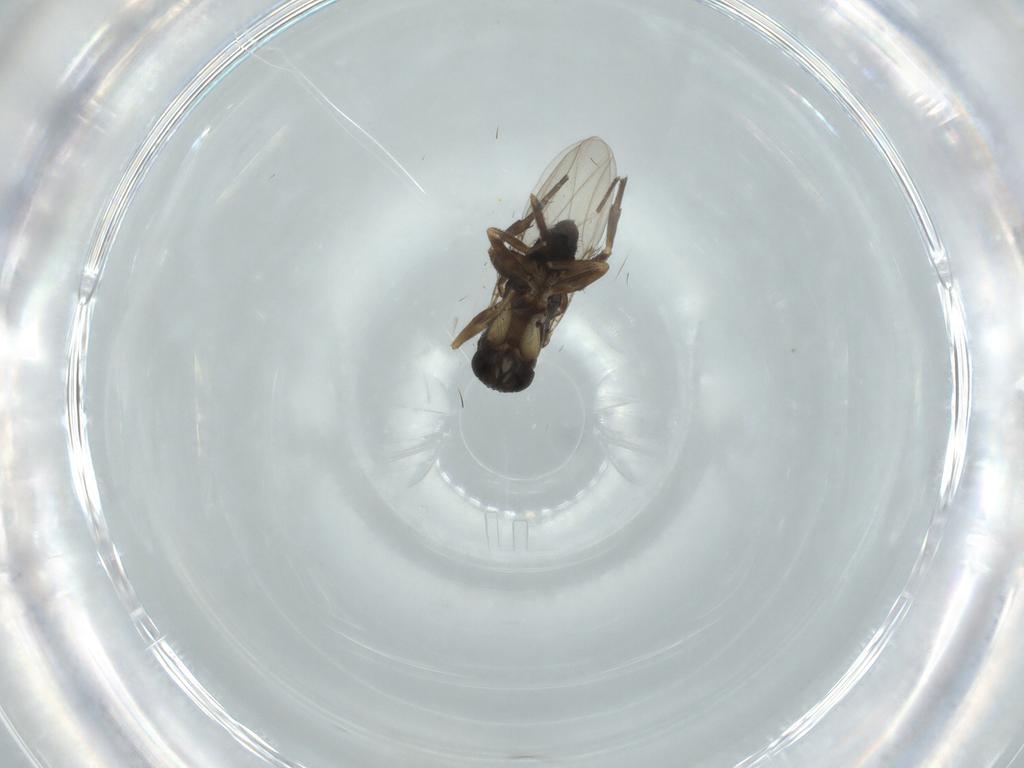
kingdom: Animalia
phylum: Arthropoda
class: Insecta
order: Diptera
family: Phoridae
